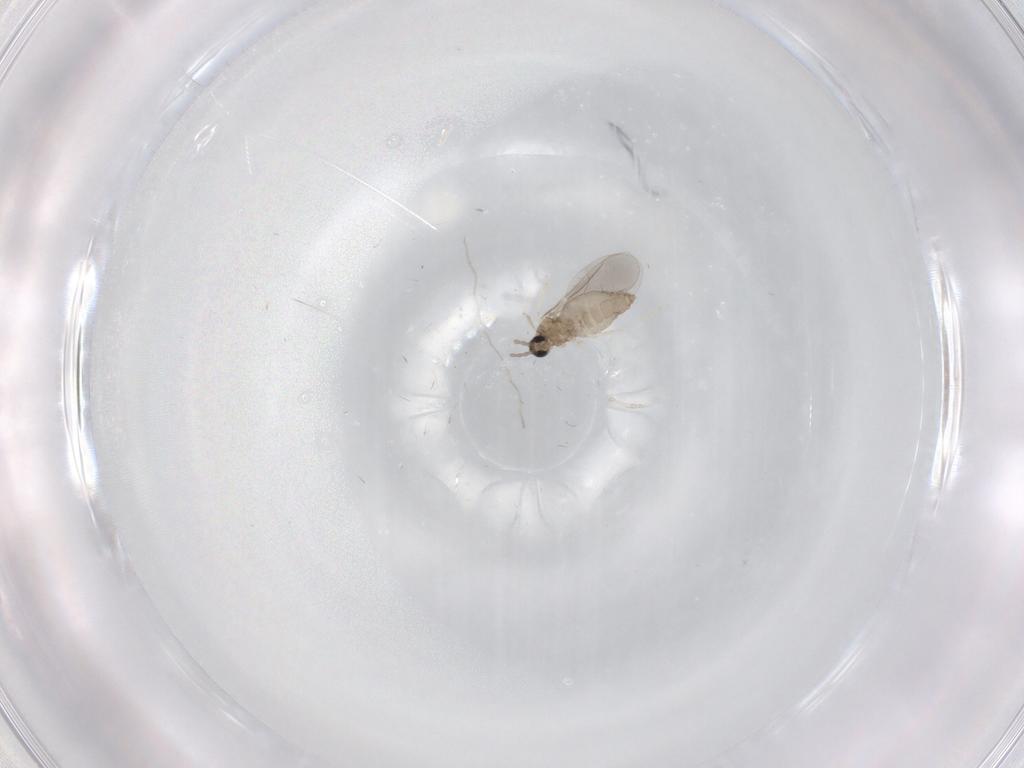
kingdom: Animalia
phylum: Arthropoda
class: Insecta
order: Diptera
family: Cecidomyiidae
